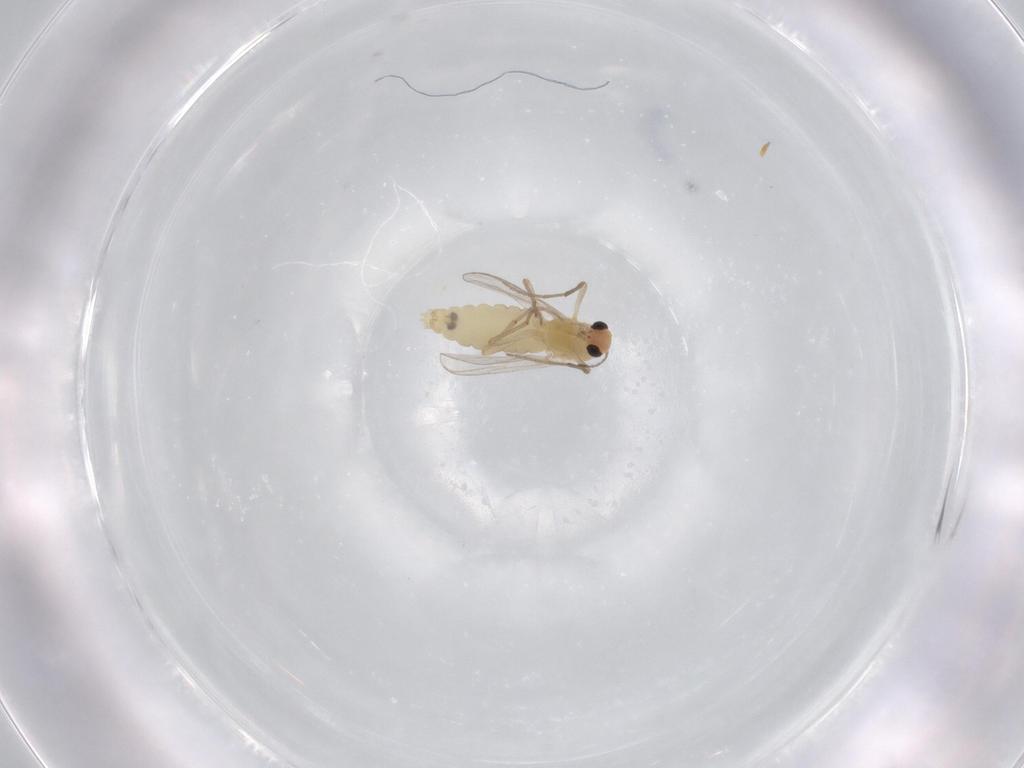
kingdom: Animalia
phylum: Arthropoda
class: Insecta
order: Diptera
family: Chironomidae
